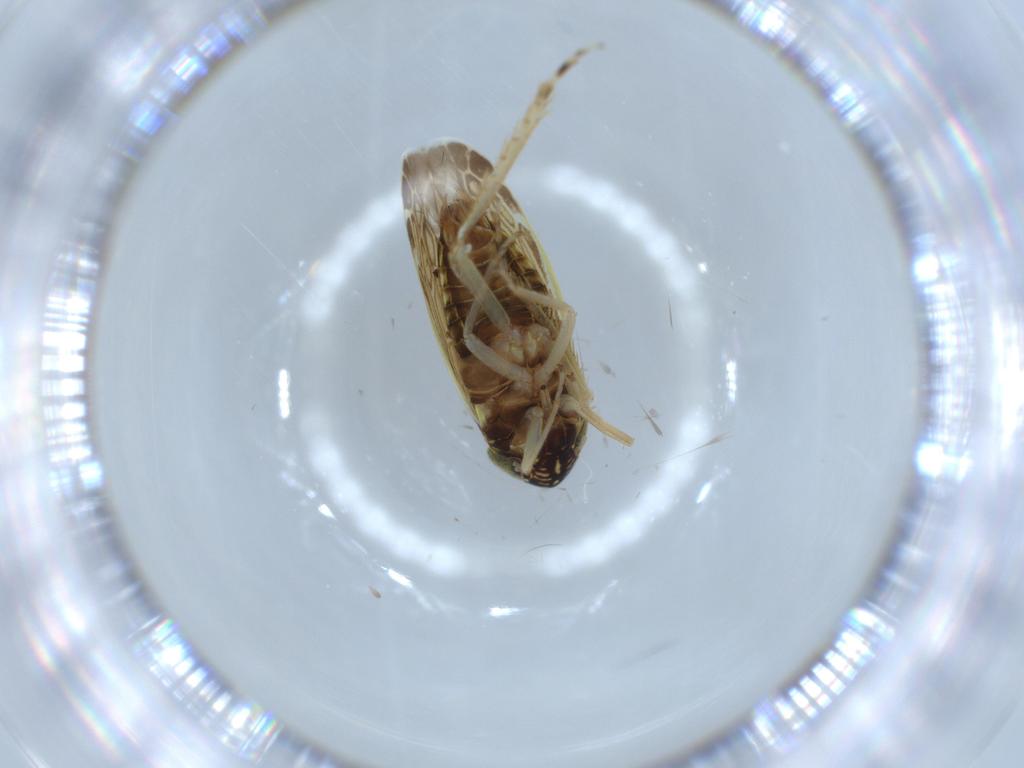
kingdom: Animalia
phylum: Arthropoda
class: Insecta
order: Hemiptera
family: Cicadellidae
